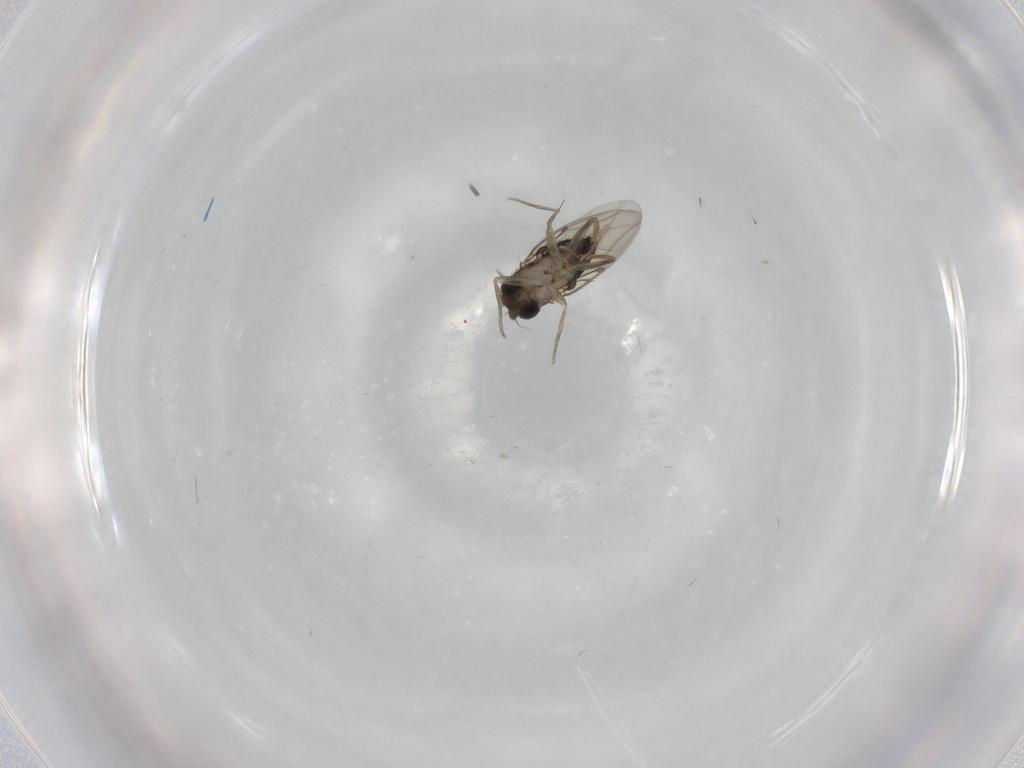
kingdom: Animalia
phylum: Arthropoda
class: Insecta
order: Diptera
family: Phoridae
